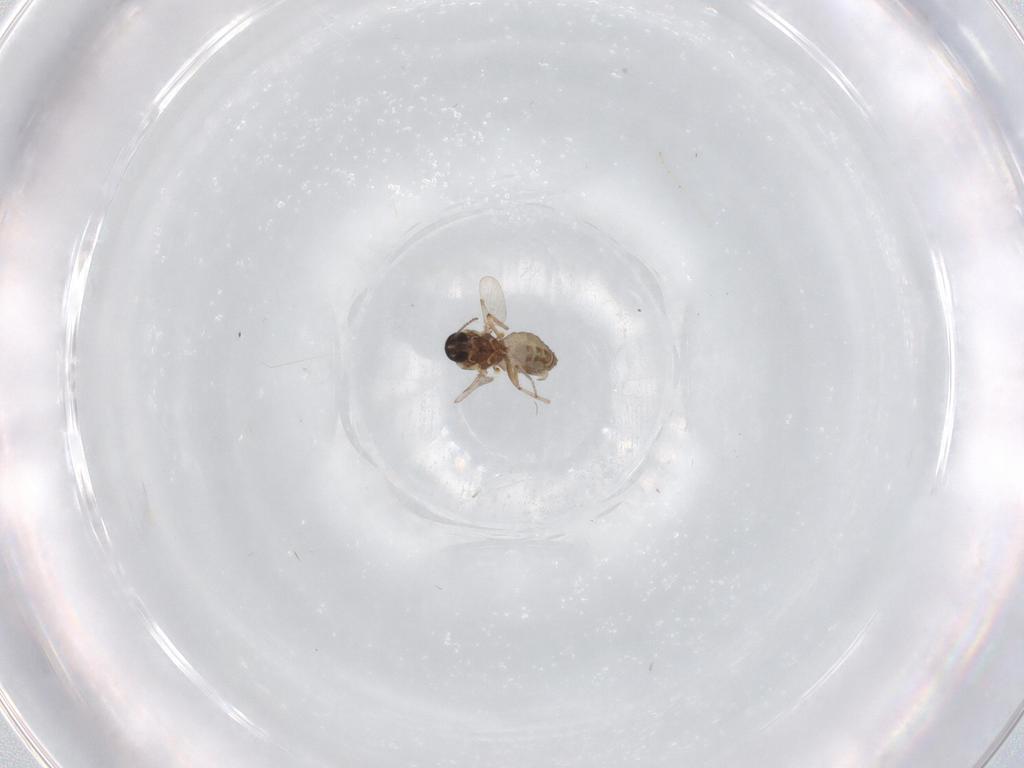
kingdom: Animalia
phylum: Arthropoda
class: Insecta
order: Diptera
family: Ceratopogonidae
